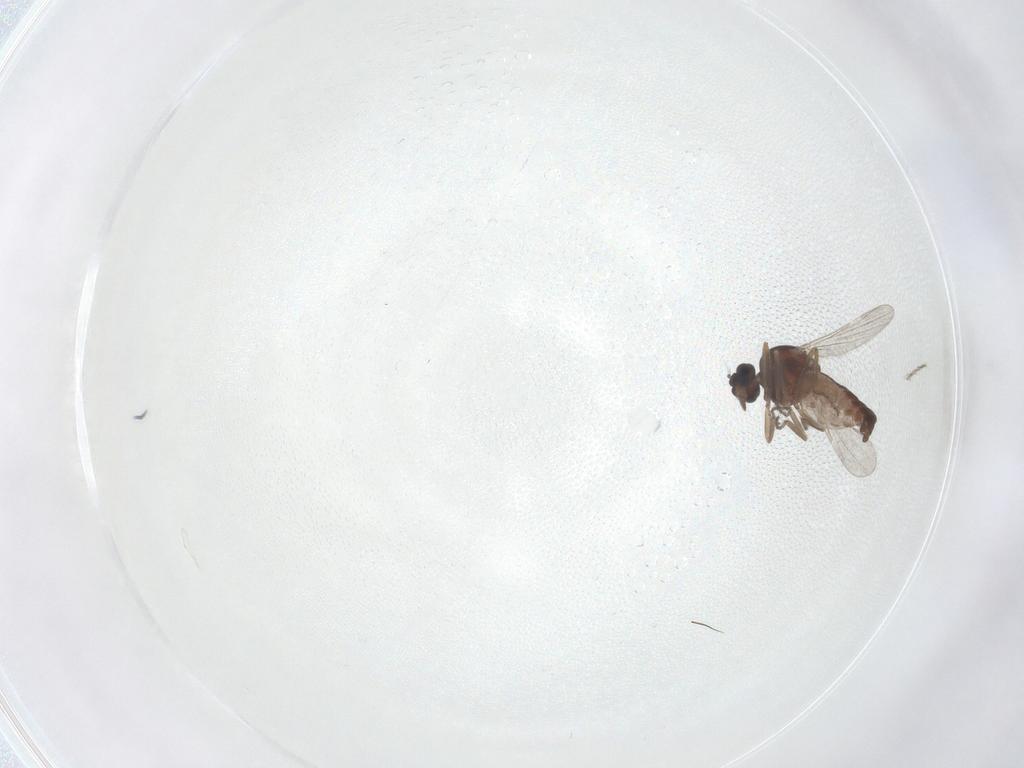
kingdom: Animalia
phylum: Arthropoda
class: Insecta
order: Diptera
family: Ceratopogonidae
